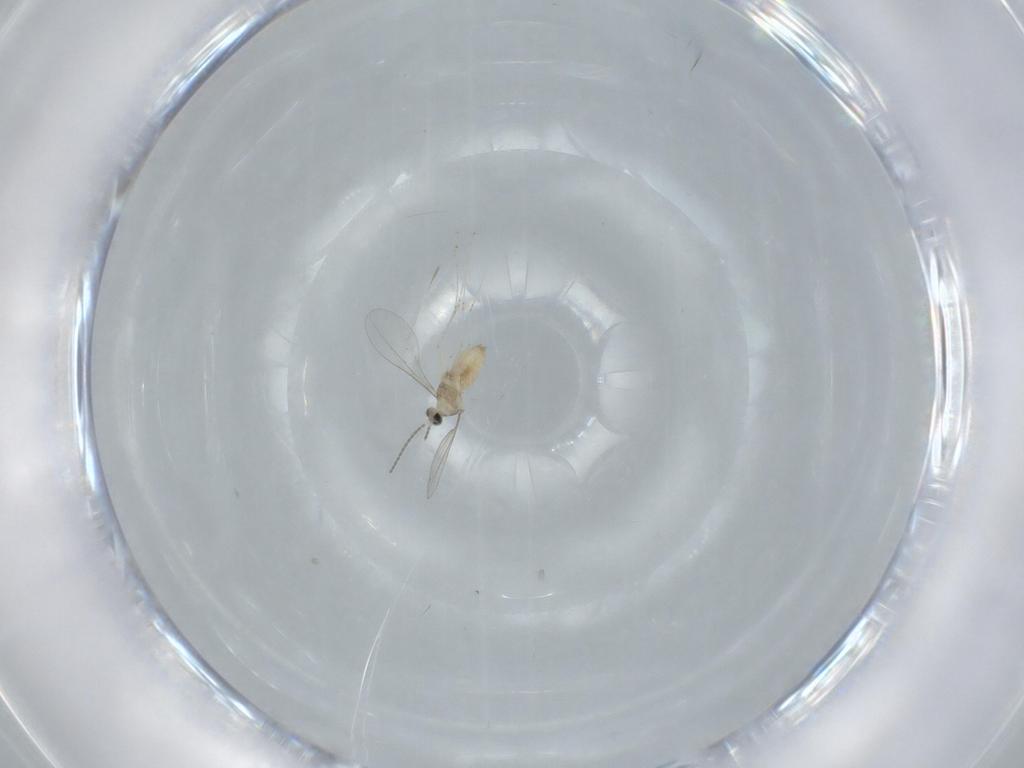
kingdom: Animalia
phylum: Arthropoda
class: Insecta
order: Diptera
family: Cecidomyiidae
